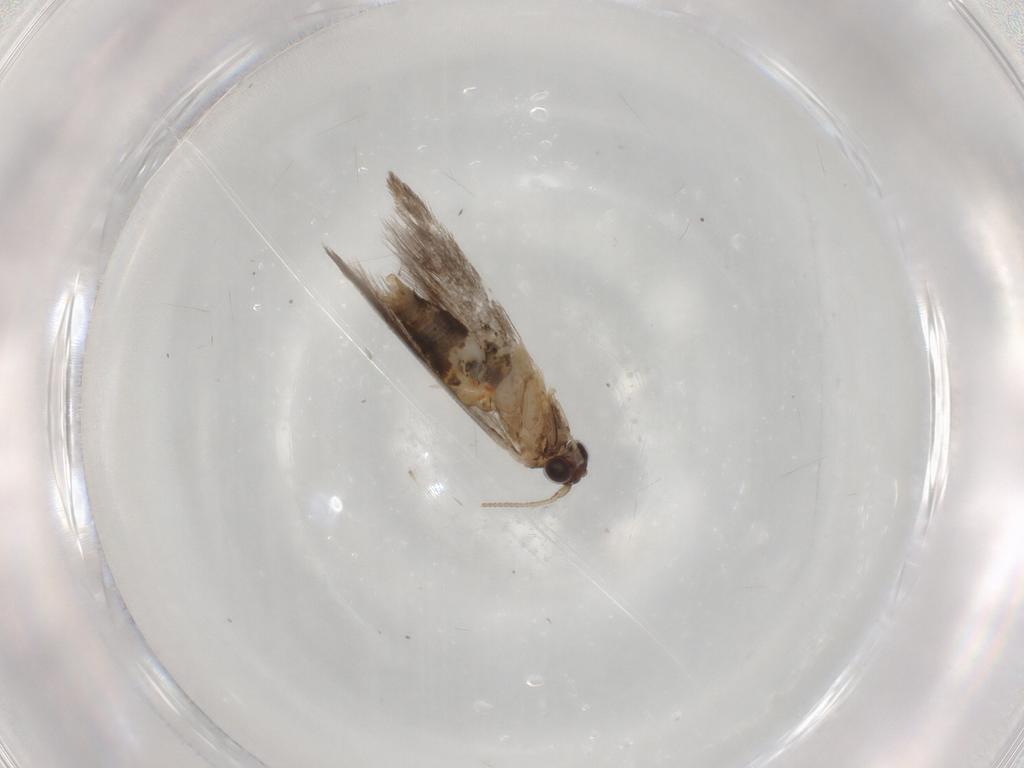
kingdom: Animalia
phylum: Arthropoda
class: Insecta
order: Lepidoptera
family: Tineidae
